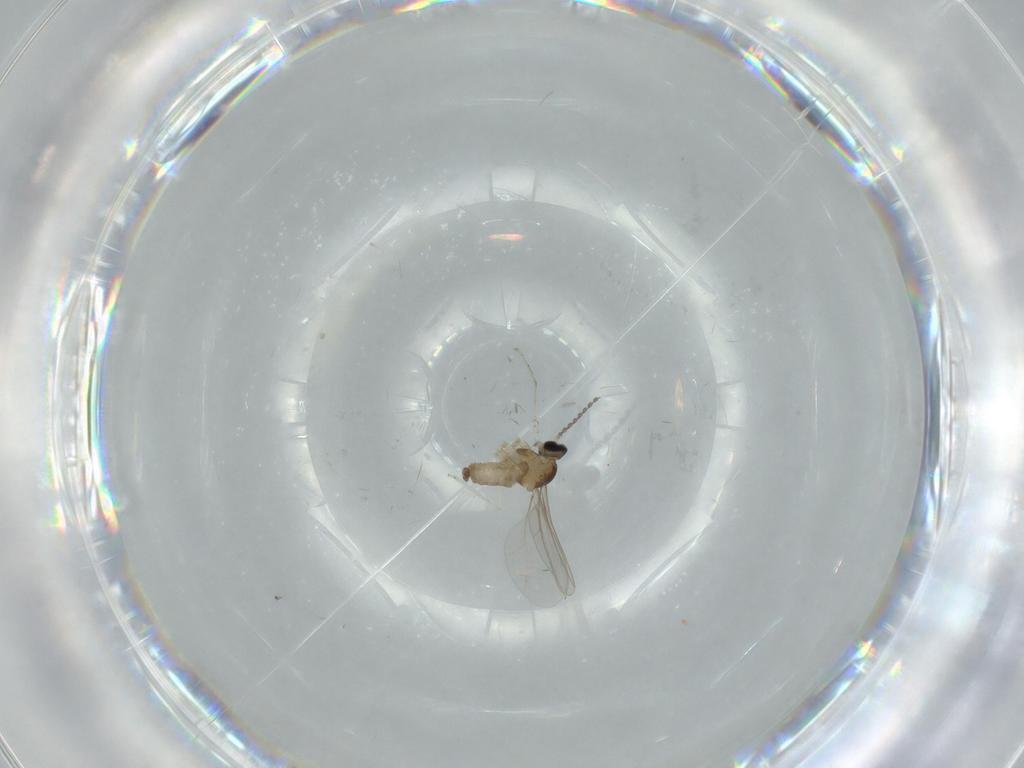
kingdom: Animalia
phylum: Arthropoda
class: Insecta
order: Diptera
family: Cecidomyiidae
